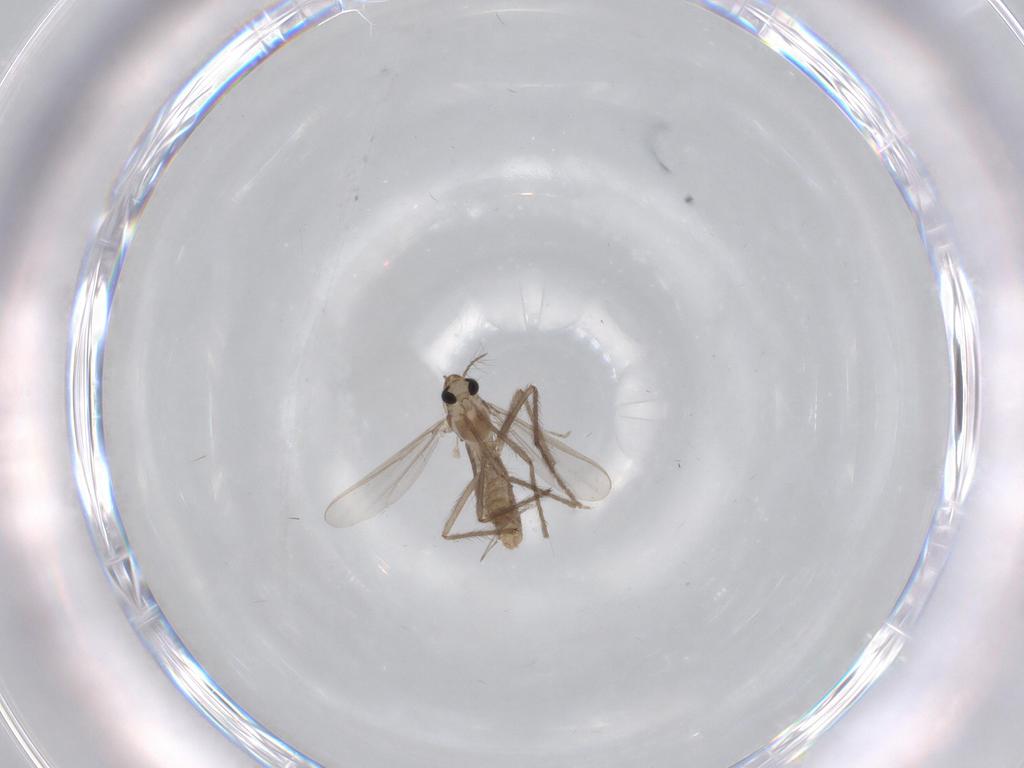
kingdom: Animalia
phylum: Arthropoda
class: Insecta
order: Diptera
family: Chironomidae
